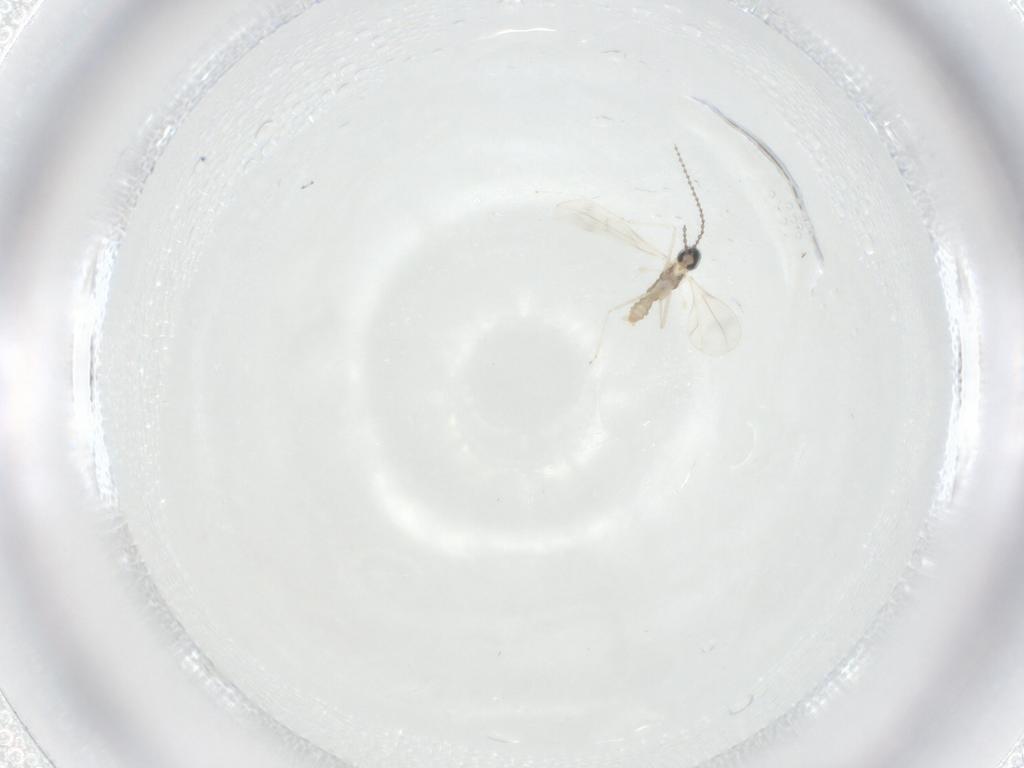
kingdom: Animalia
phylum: Arthropoda
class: Insecta
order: Diptera
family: Cecidomyiidae
